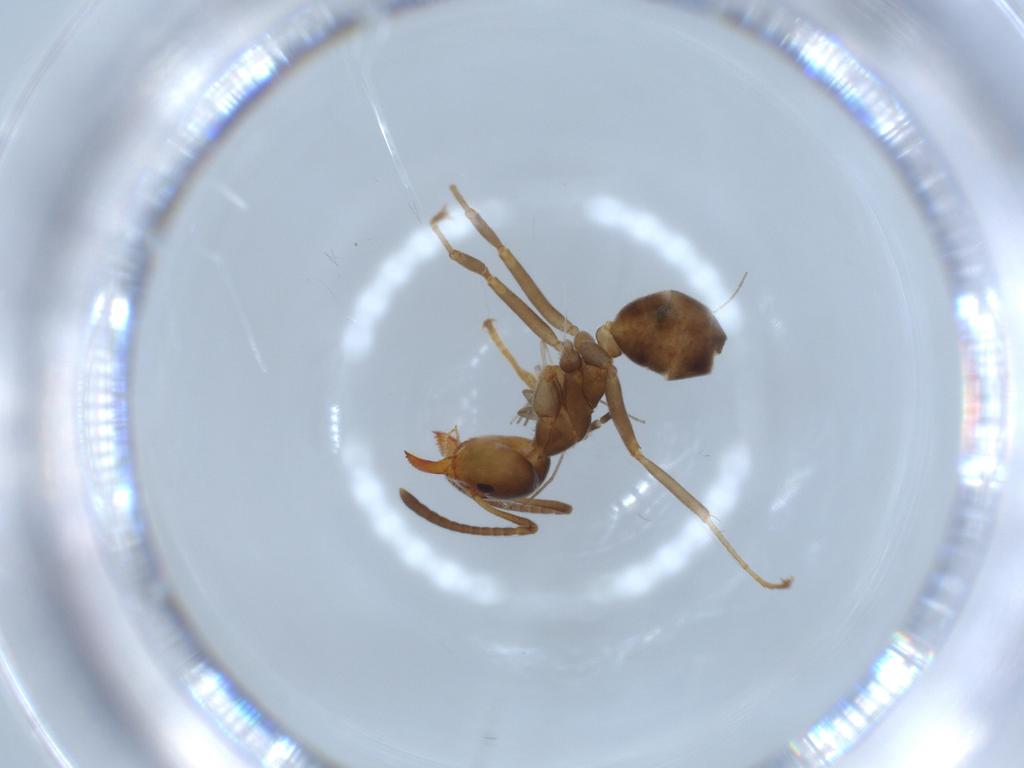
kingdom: Animalia
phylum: Arthropoda
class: Insecta
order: Hymenoptera
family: Formicidae
